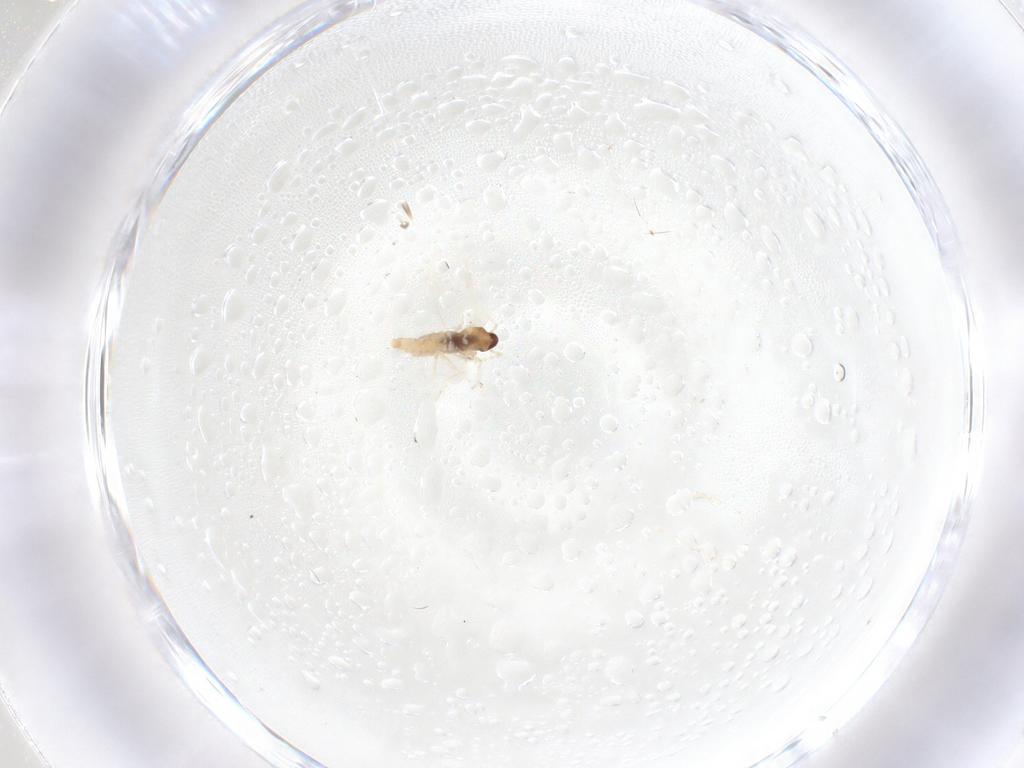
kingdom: Animalia
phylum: Arthropoda
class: Insecta
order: Diptera
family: Cecidomyiidae
